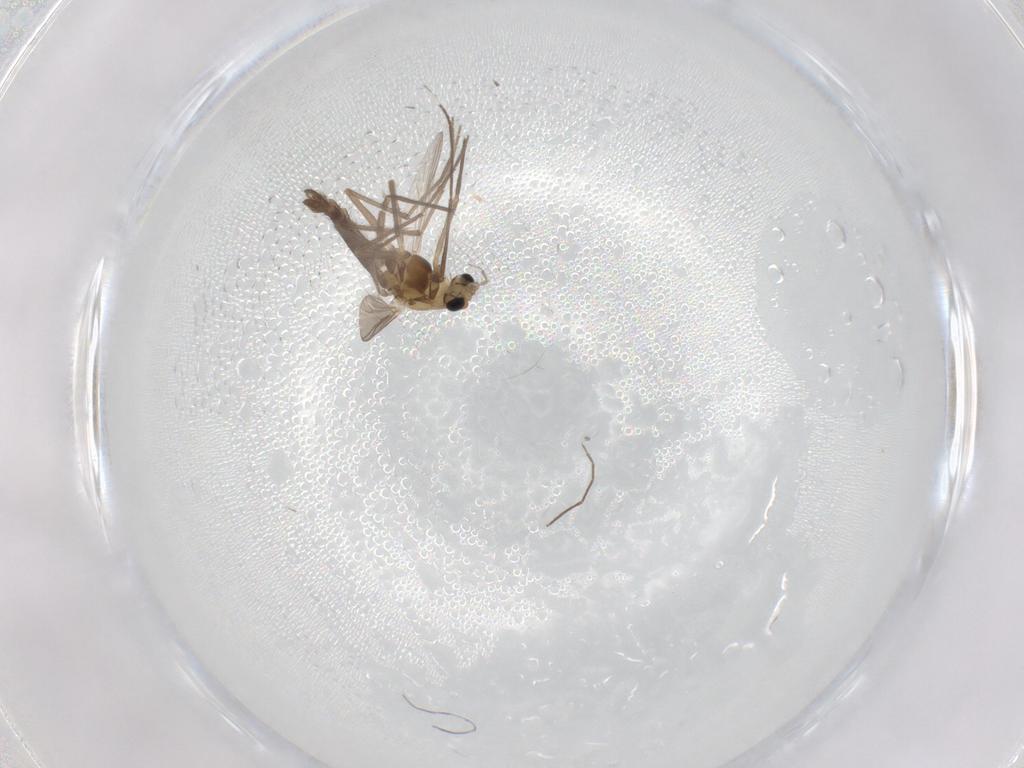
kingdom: Animalia
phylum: Arthropoda
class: Insecta
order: Diptera
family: Chironomidae
